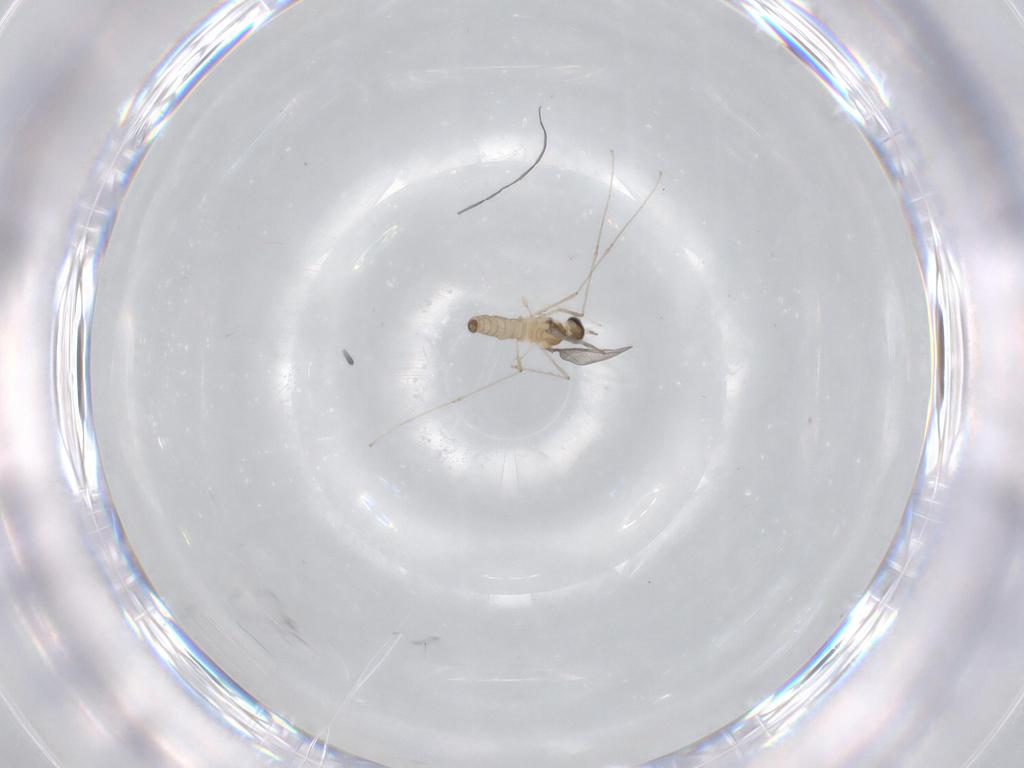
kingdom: Animalia
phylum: Arthropoda
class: Insecta
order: Diptera
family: Cecidomyiidae
